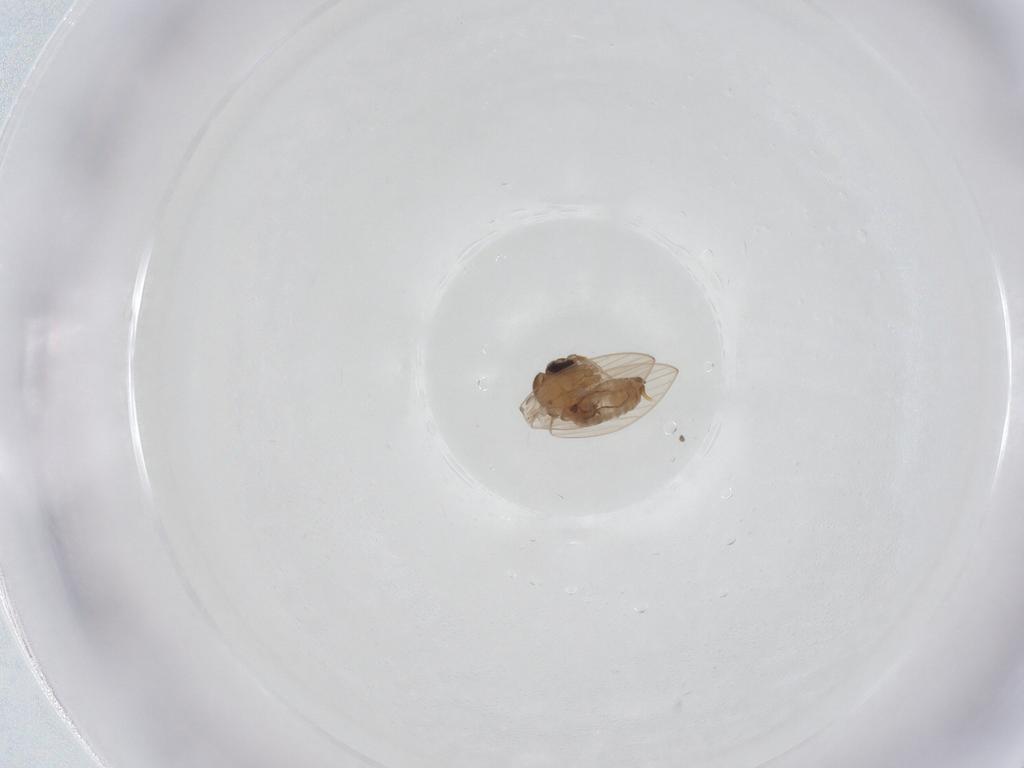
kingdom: Animalia
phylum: Arthropoda
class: Insecta
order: Diptera
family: Psychodidae
